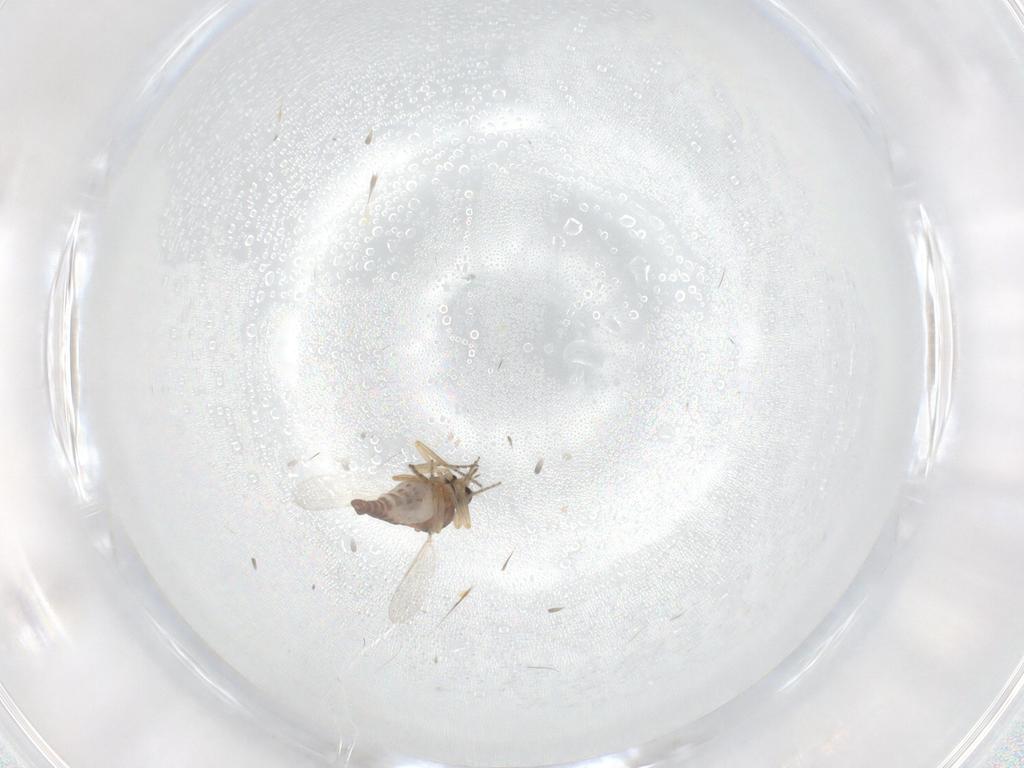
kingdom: Animalia
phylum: Arthropoda
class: Insecta
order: Diptera
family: Ceratopogonidae
